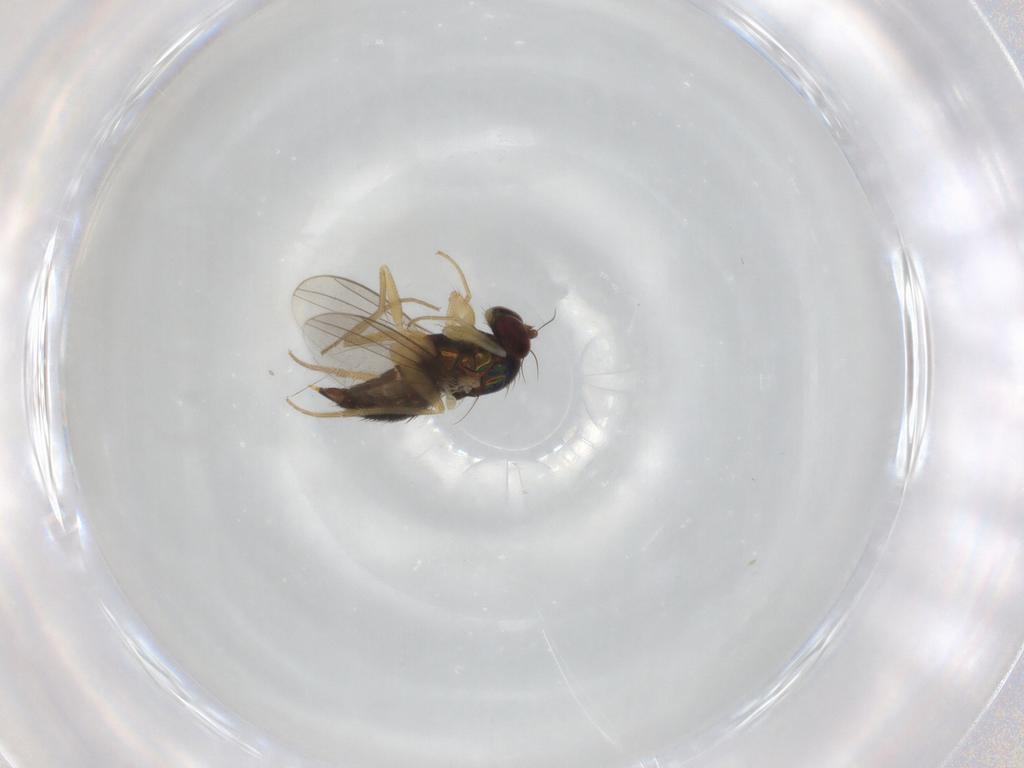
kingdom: Animalia
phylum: Arthropoda
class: Insecta
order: Diptera
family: Dolichopodidae
